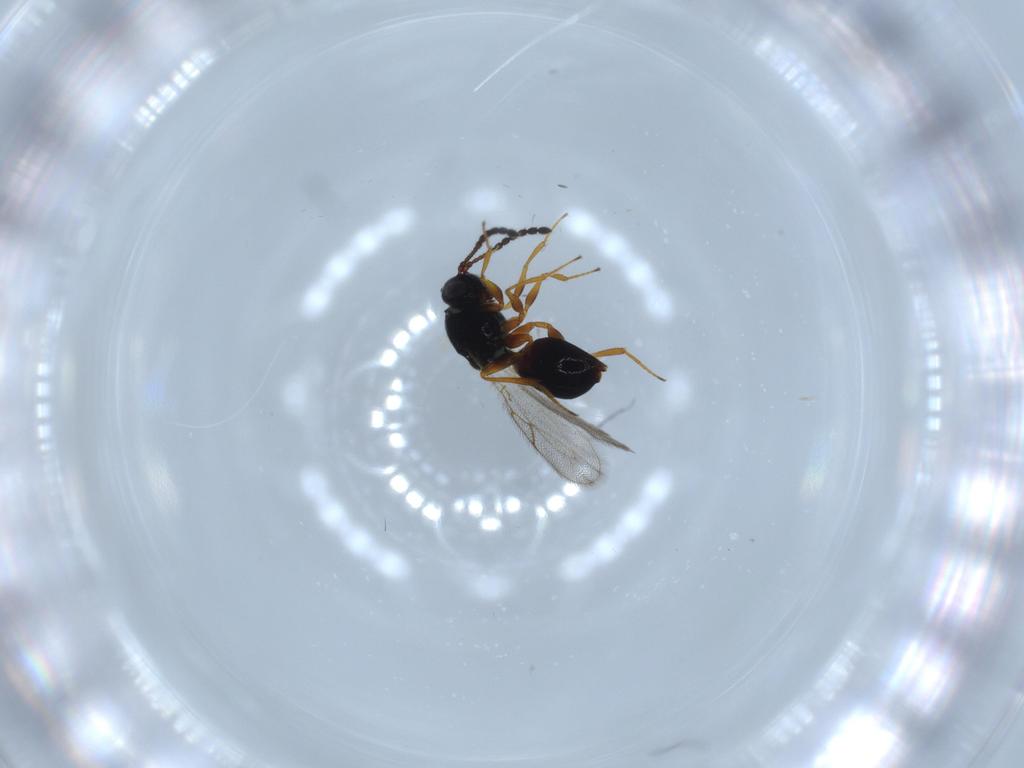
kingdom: Animalia
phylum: Arthropoda
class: Insecta
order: Hymenoptera
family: Figitidae
